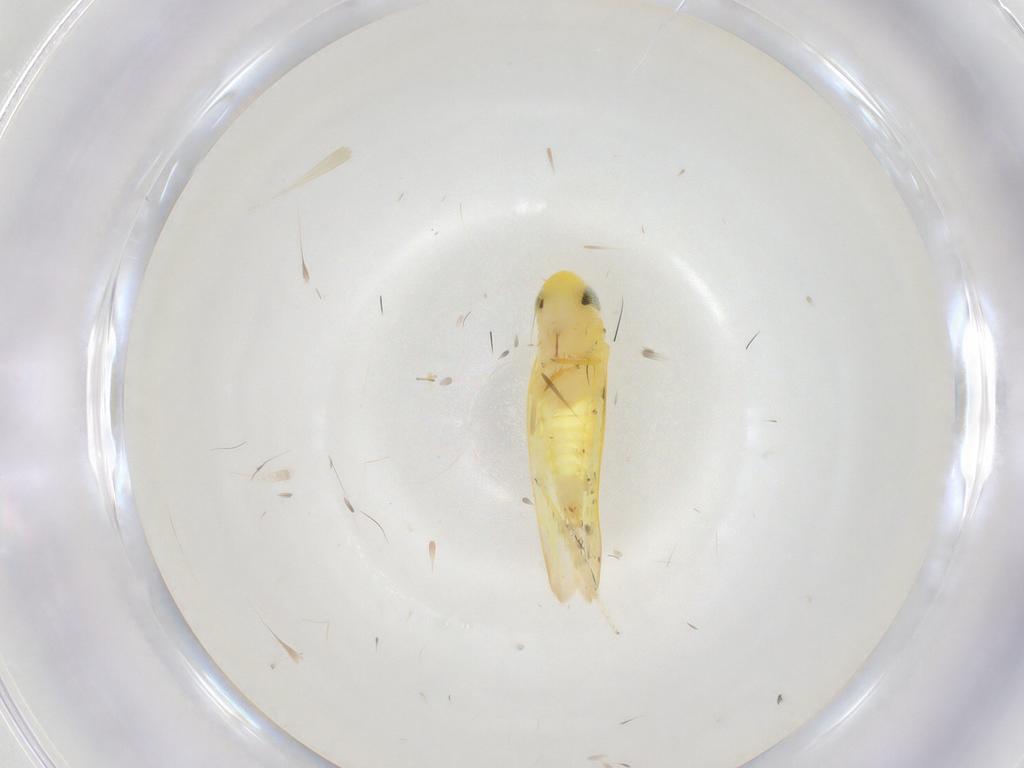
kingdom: Animalia
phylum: Arthropoda
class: Insecta
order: Hemiptera
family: Cicadellidae
